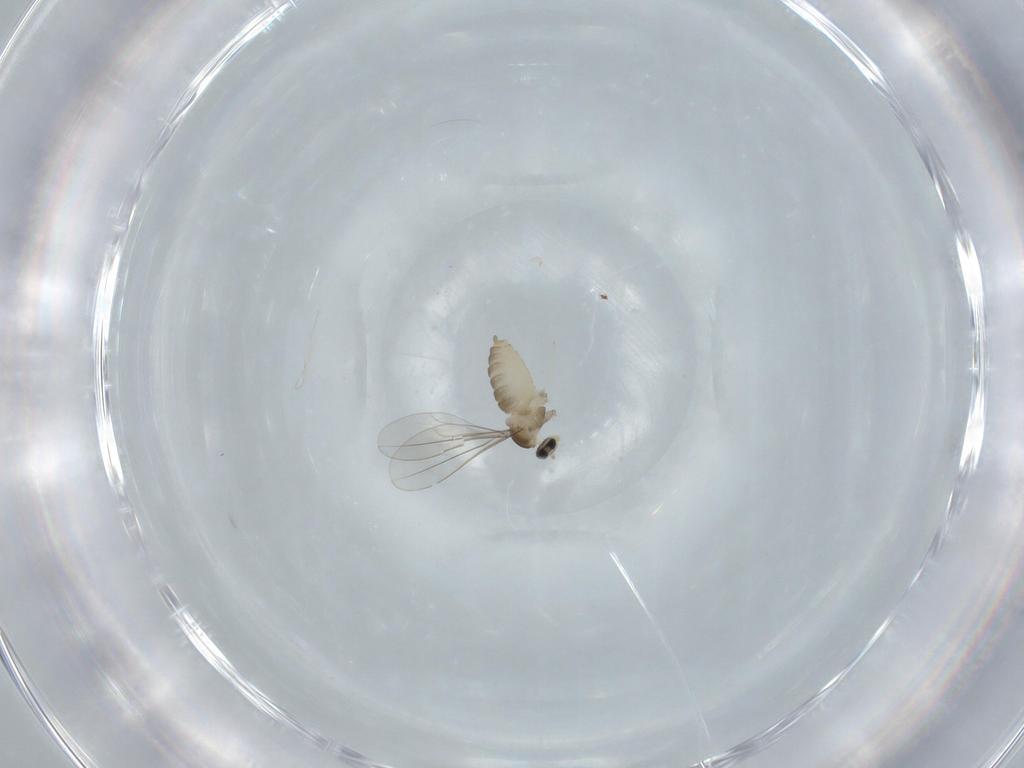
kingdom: Animalia
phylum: Arthropoda
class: Insecta
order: Diptera
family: Cecidomyiidae
